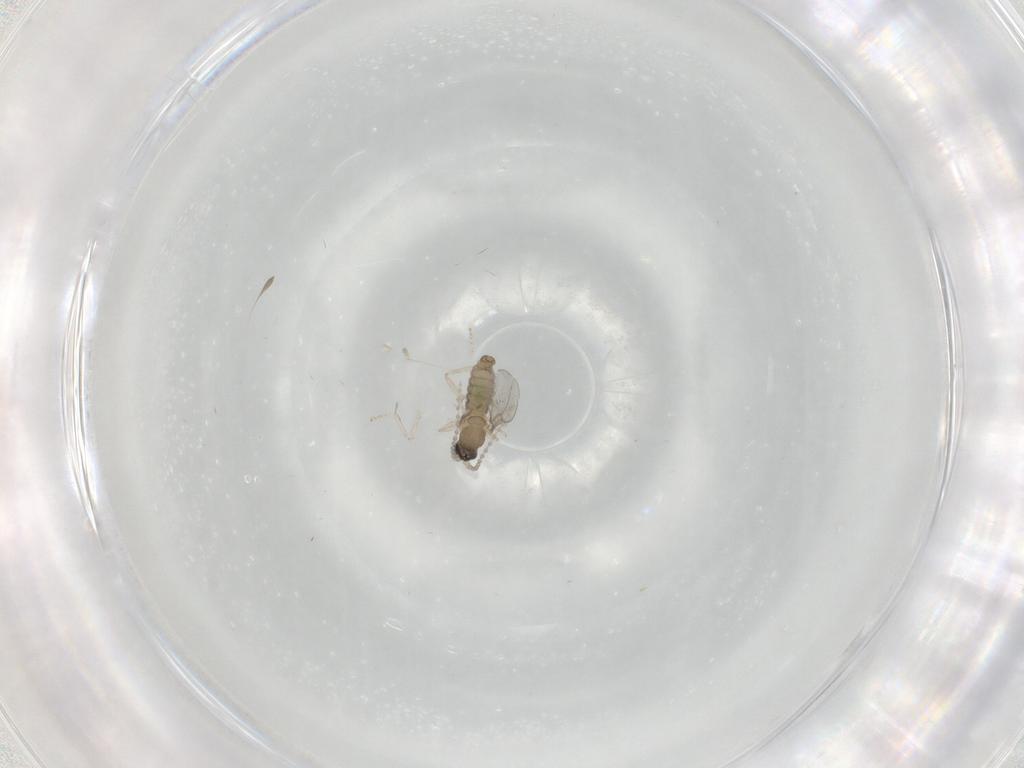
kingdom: Animalia
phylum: Arthropoda
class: Insecta
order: Diptera
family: Cecidomyiidae
